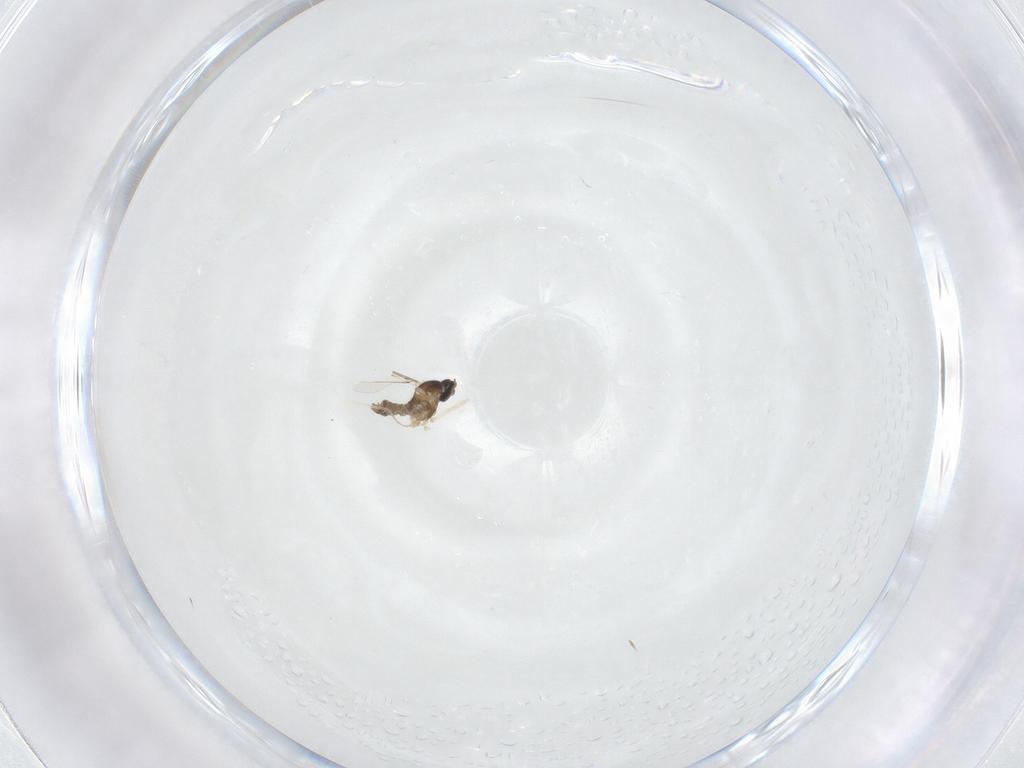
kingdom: Animalia
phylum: Arthropoda
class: Insecta
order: Diptera
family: Cecidomyiidae
